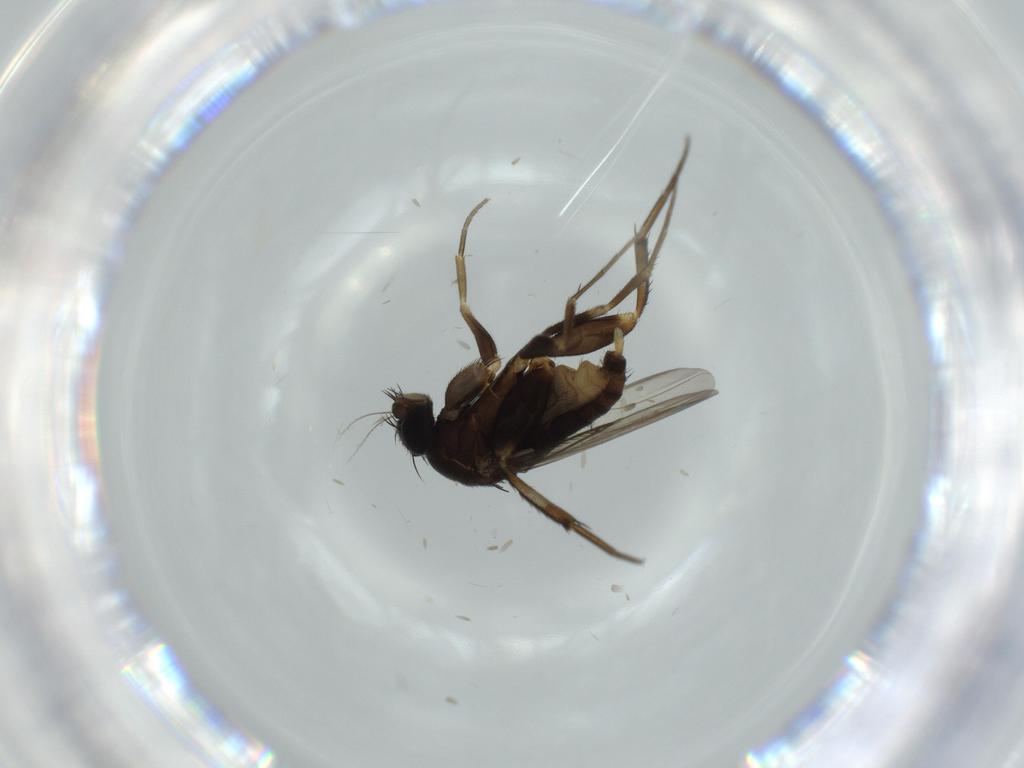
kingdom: Animalia
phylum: Arthropoda
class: Insecta
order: Diptera
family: Phoridae
